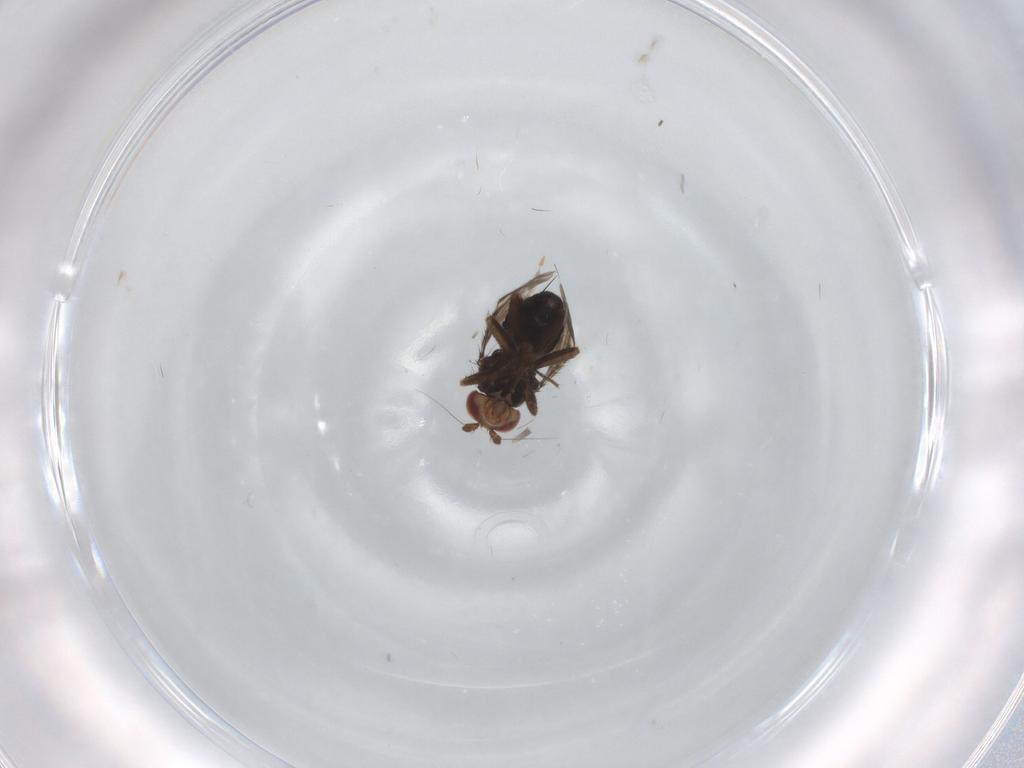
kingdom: Animalia
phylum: Arthropoda
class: Insecta
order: Diptera
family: Sphaeroceridae
